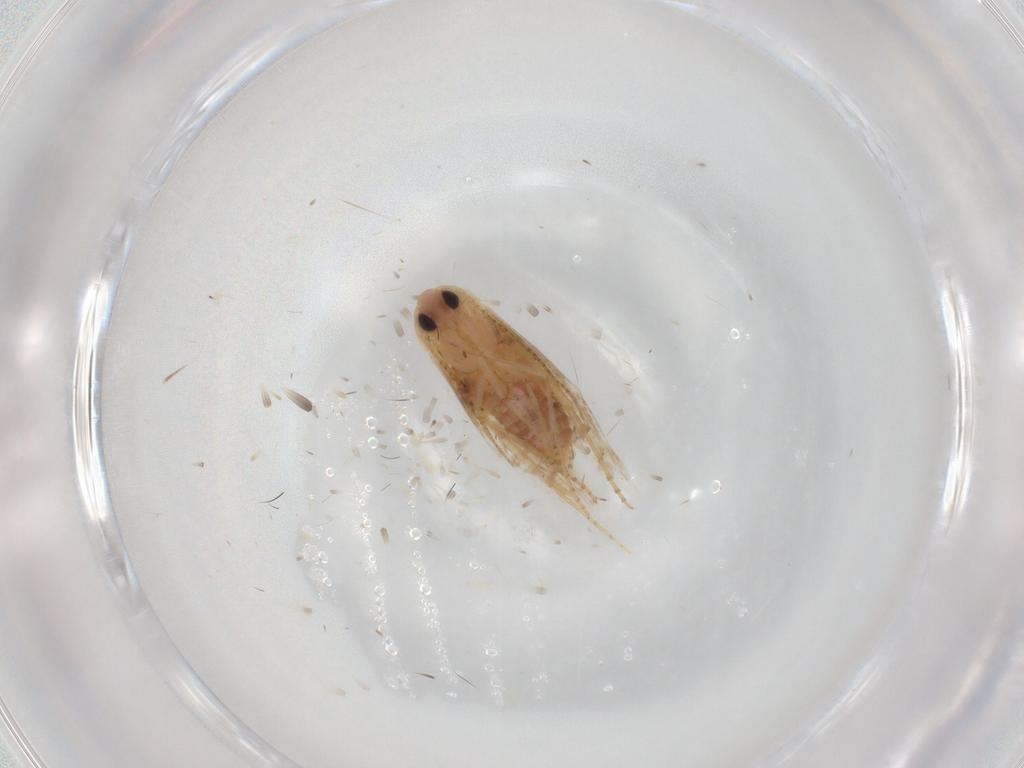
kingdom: Animalia
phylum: Arthropoda
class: Insecta
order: Lepidoptera
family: Bucculatricidae
